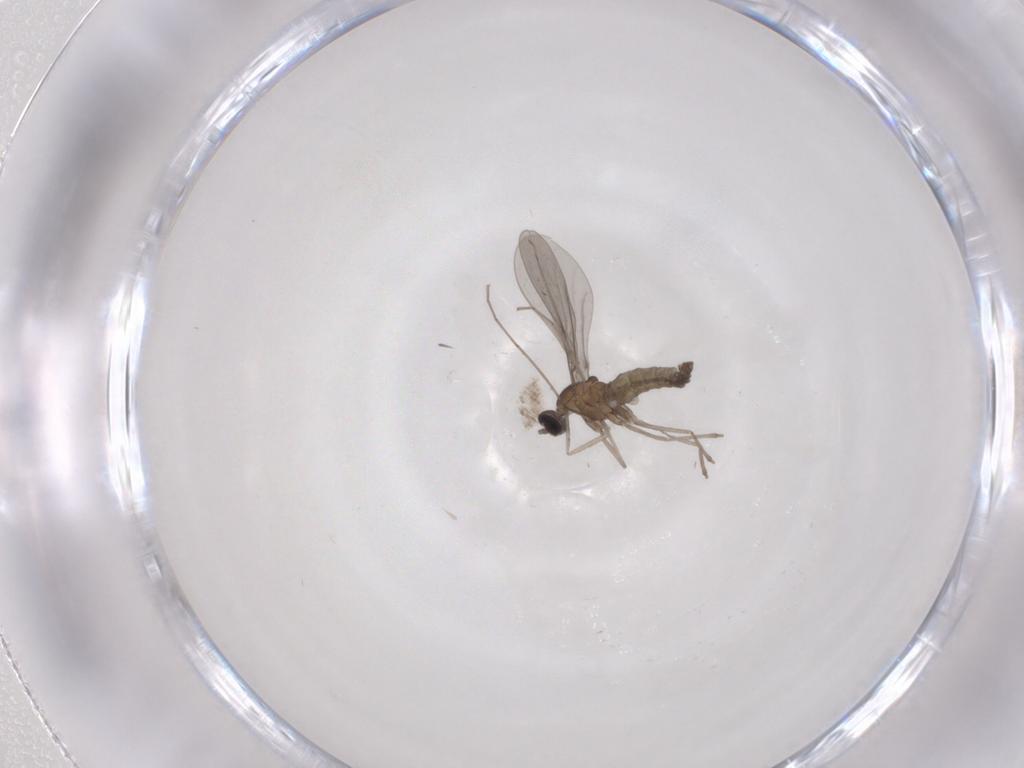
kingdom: Animalia
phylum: Arthropoda
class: Insecta
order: Diptera
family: Cecidomyiidae
